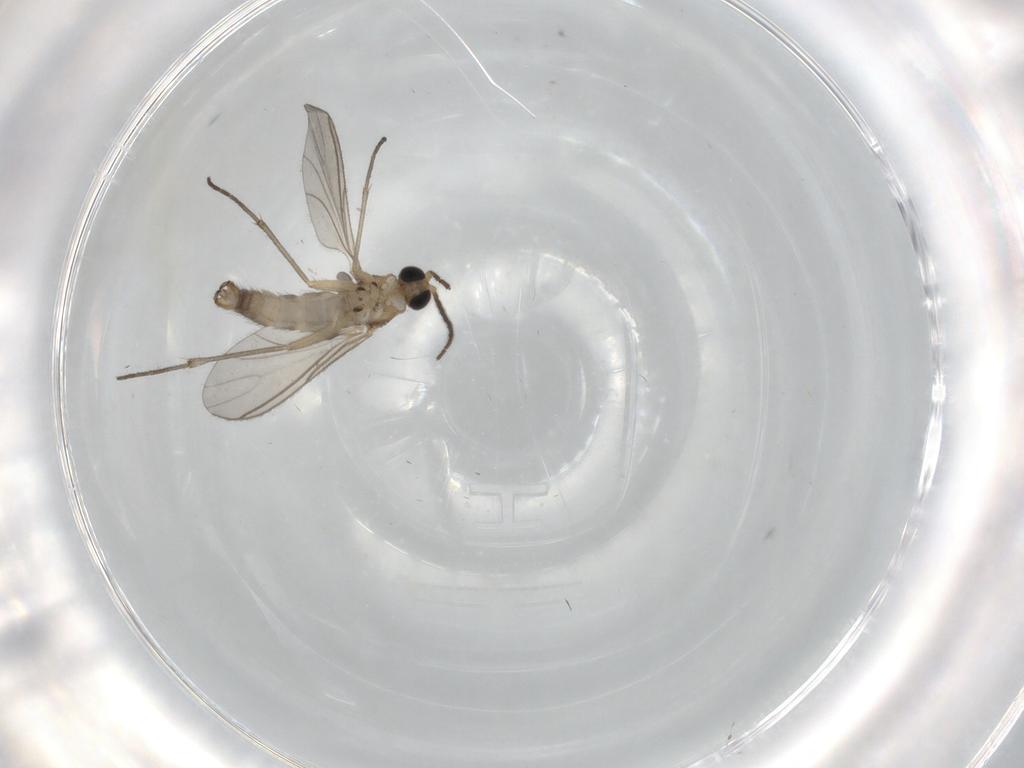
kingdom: Animalia
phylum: Arthropoda
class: Insecta
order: Diptera
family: Cecidomyiidae
